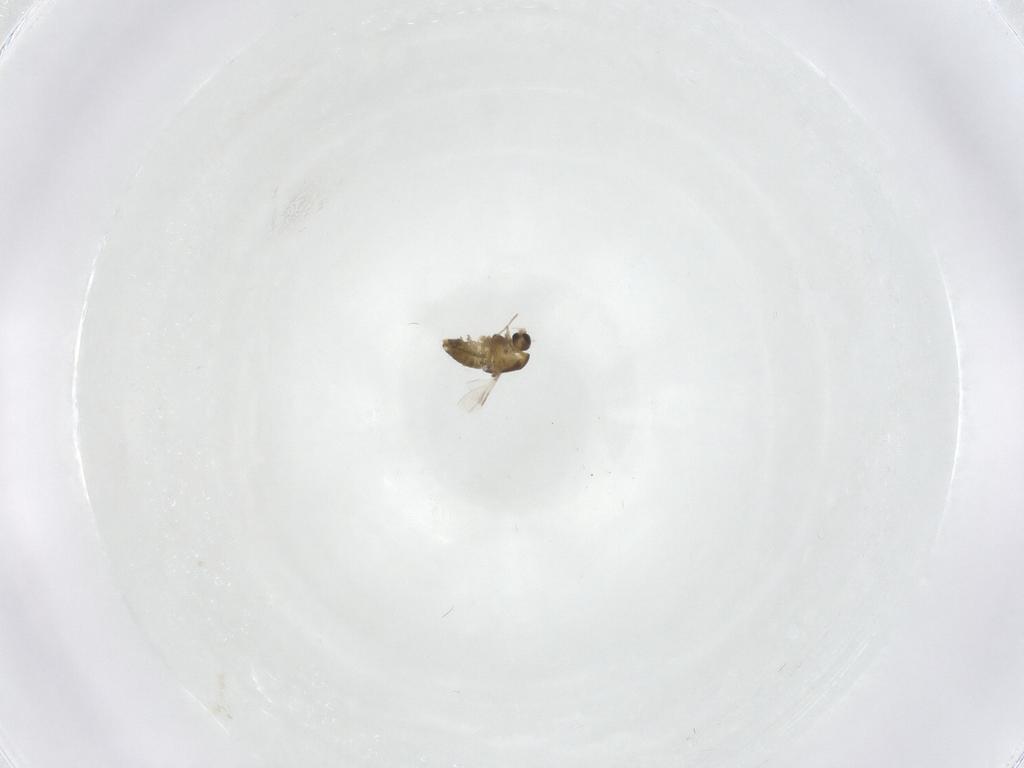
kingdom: Animalia
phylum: Arthropoda
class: Insecta
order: Diptera
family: Chironomidae
